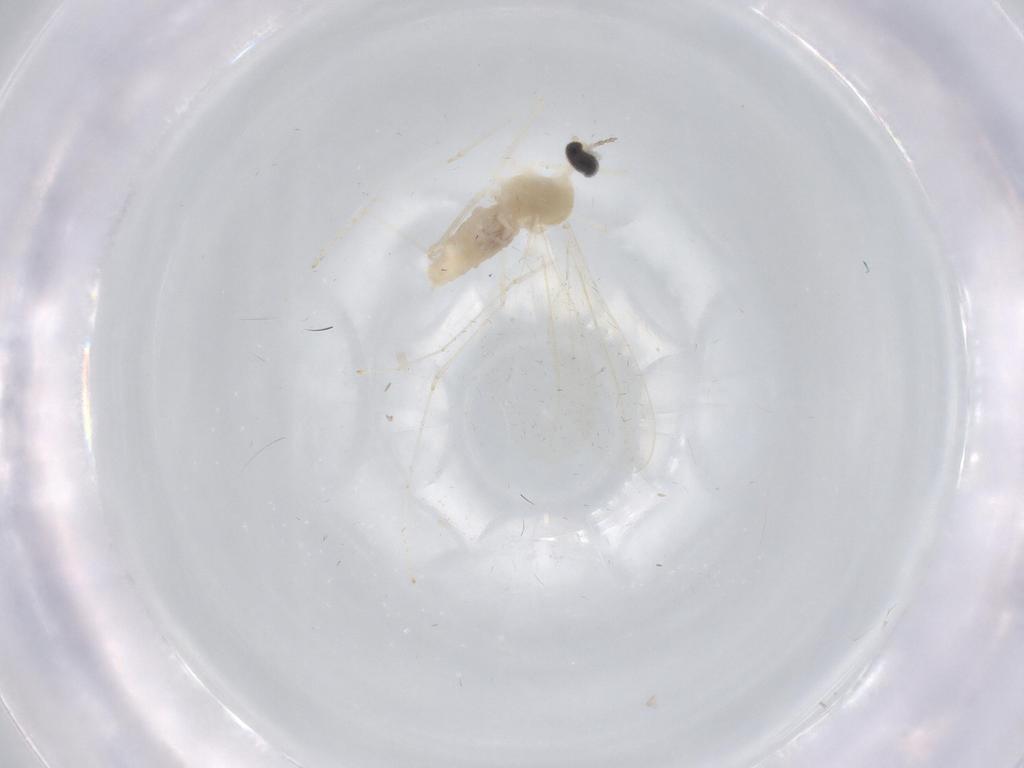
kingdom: Animalia
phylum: Arthropoda
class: Insecta
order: Diptera
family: Cecidomyiidae
